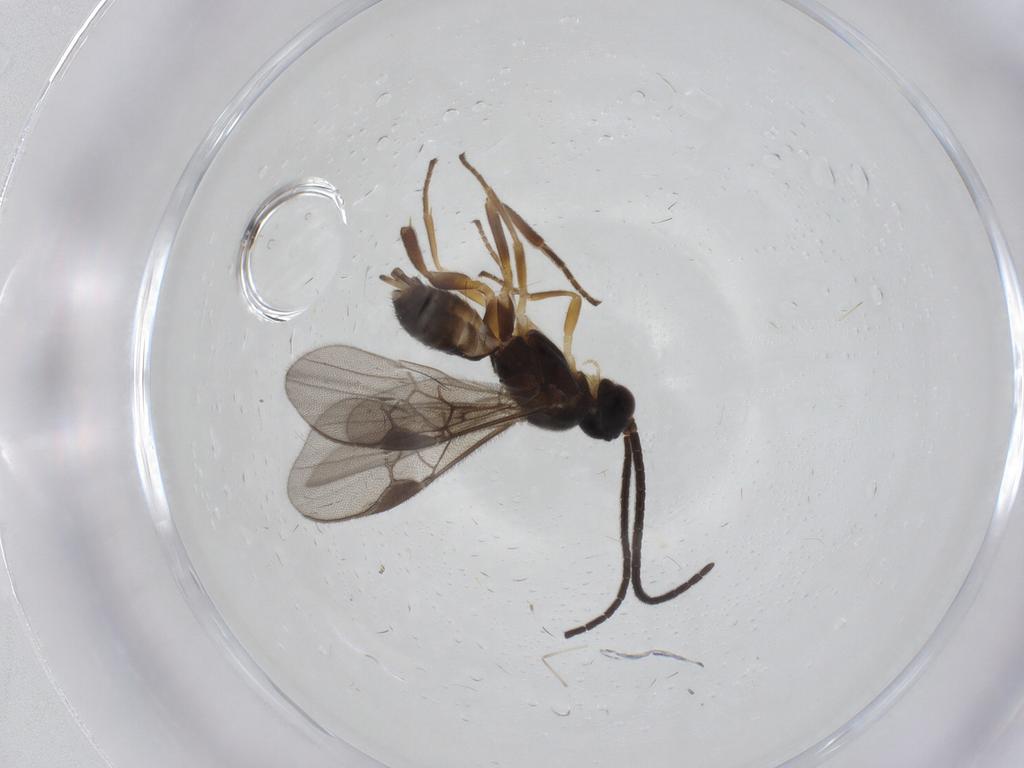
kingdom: Animalia
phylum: Arthropoda
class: Insecta
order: Hymenoptera
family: Braconidae
